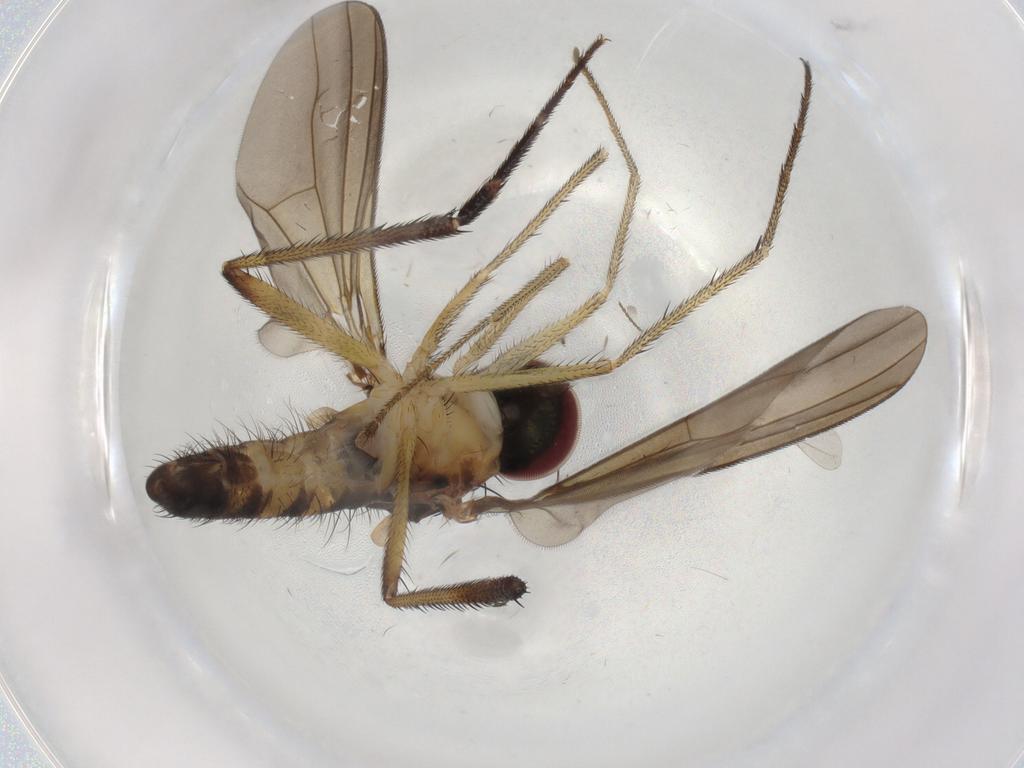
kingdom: Animalia
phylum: Arthropoda
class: Insecta
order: Diptera
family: Dolichopodidae
